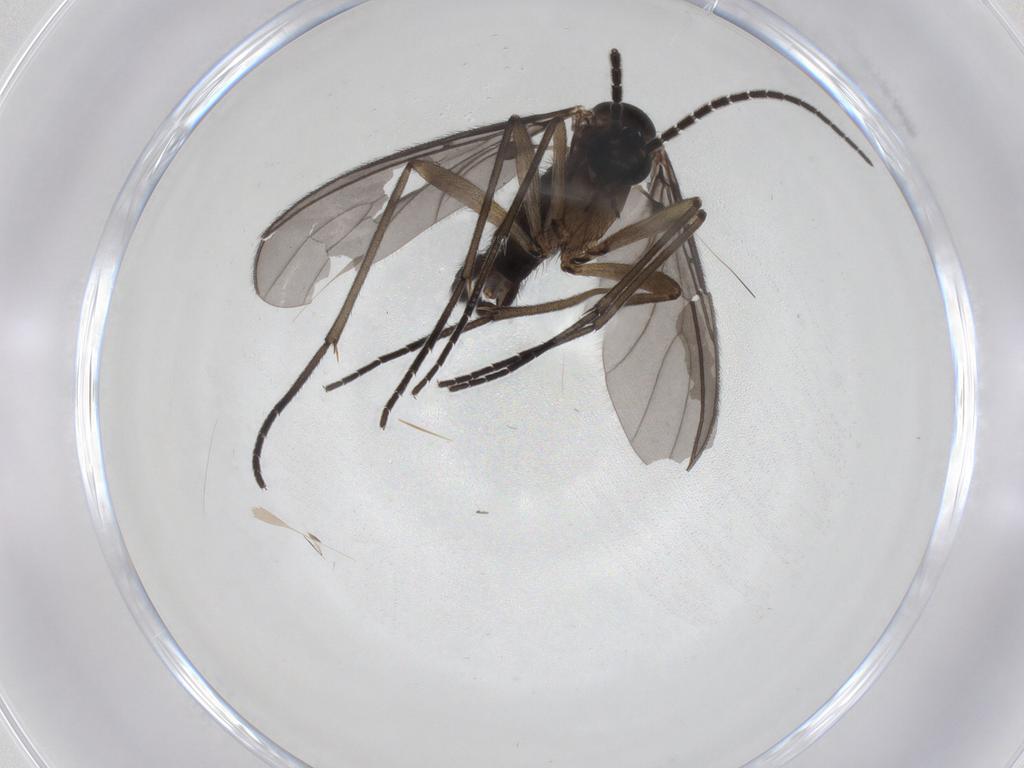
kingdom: Animalia
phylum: Arthropoda
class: Insecta
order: Diptera
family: Sciaridae
